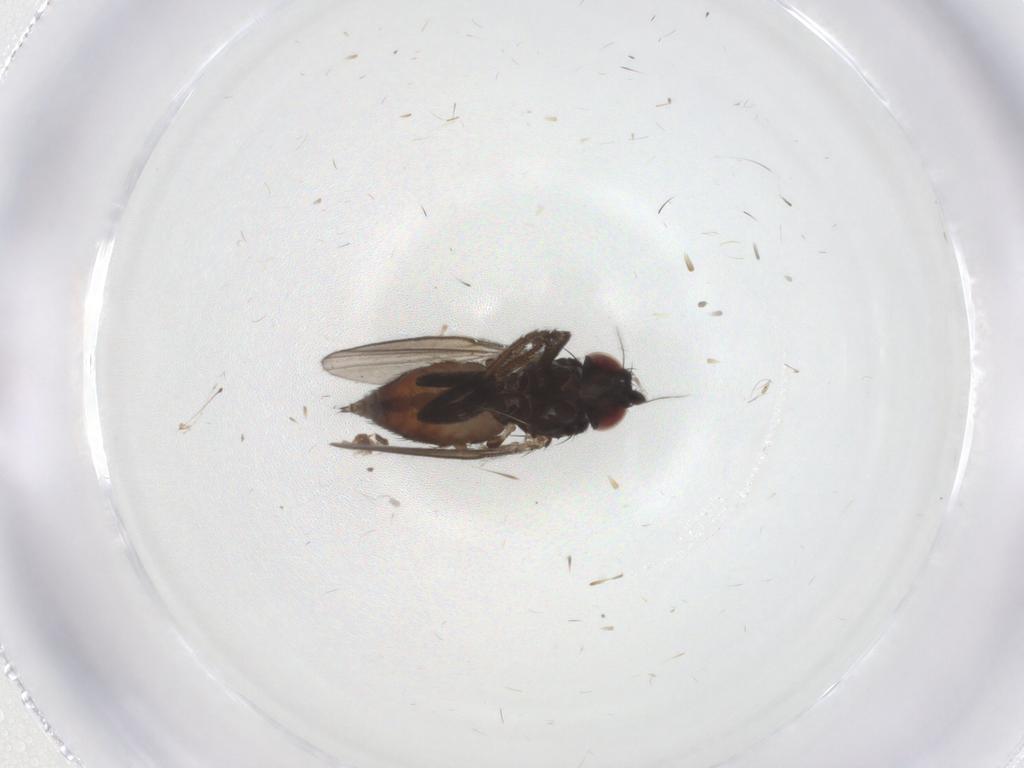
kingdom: Animalia
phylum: Arthropoda
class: Insecta
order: Diptera
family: Milichiidae
